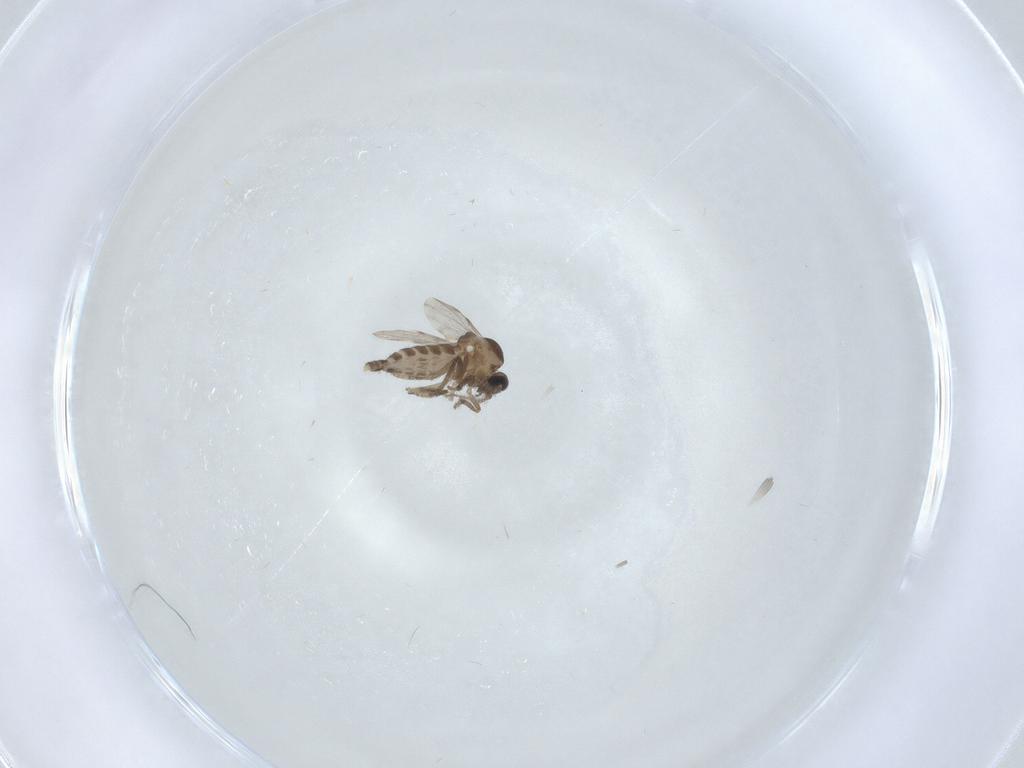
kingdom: Animalia
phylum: Arthropoda
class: Insecta
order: Diptera
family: Ceratopogonidae
